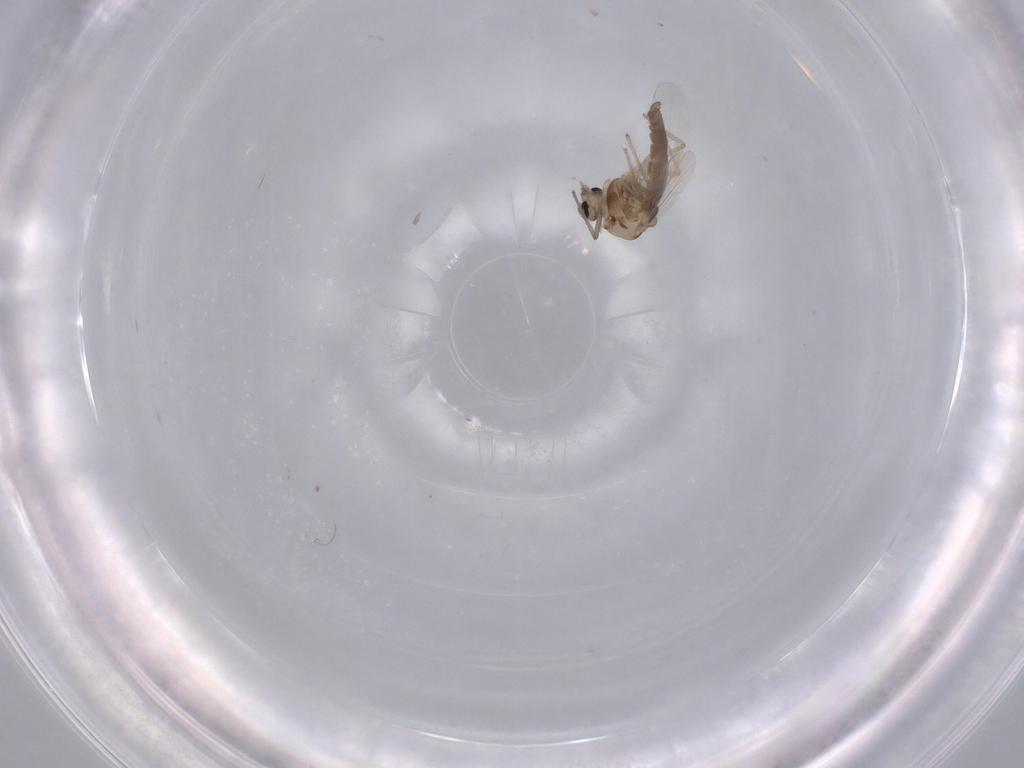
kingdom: Animalia
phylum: Arthropoda
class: Insecta
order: Diptera
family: Chironomidae
